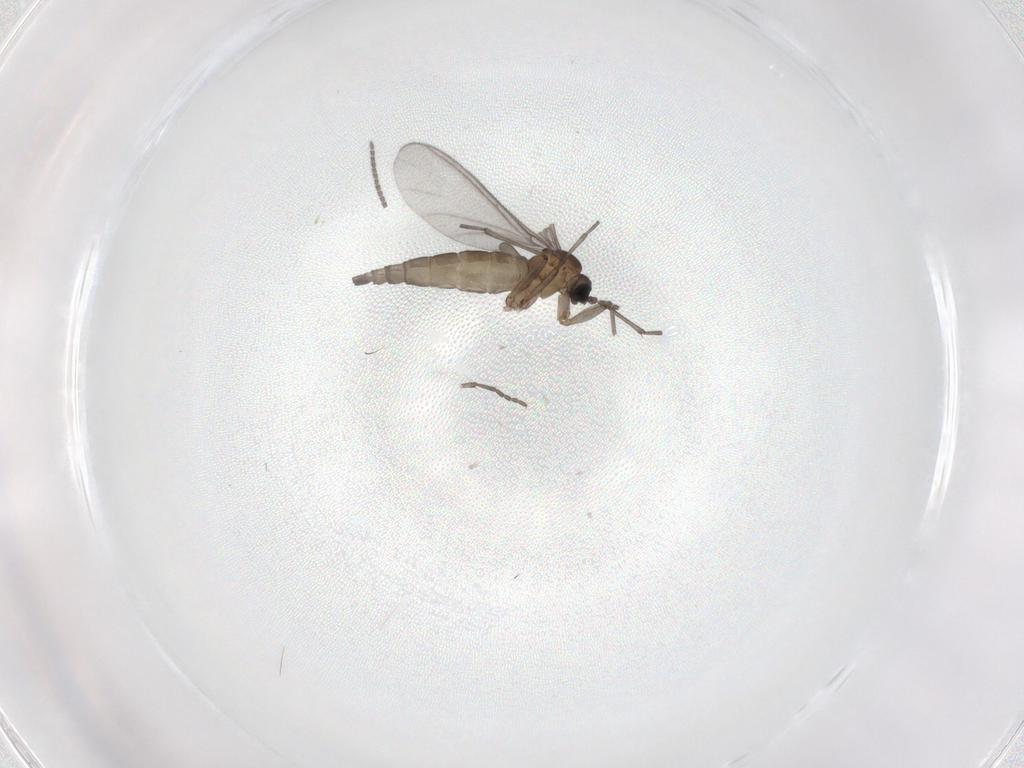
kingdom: Animalia
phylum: Arthropoda
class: Insecta
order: Diptera
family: Sciaridae
